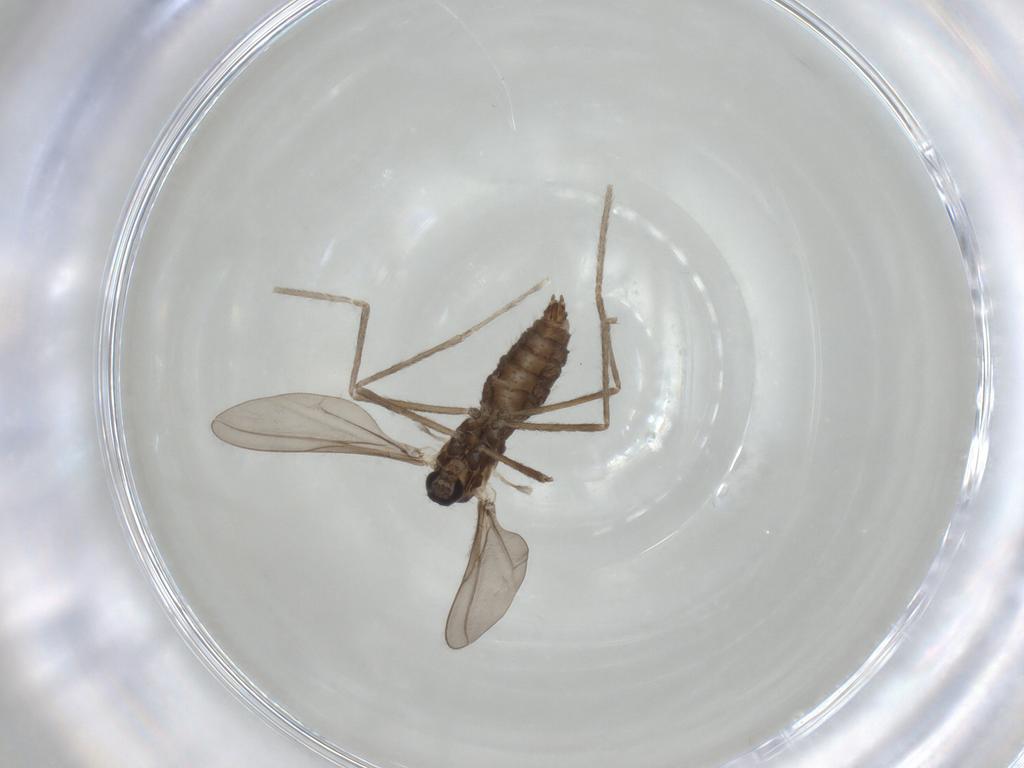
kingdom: Animalia
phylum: Arthropoda
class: Insecta
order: Diptera
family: Cecidomyiidae
